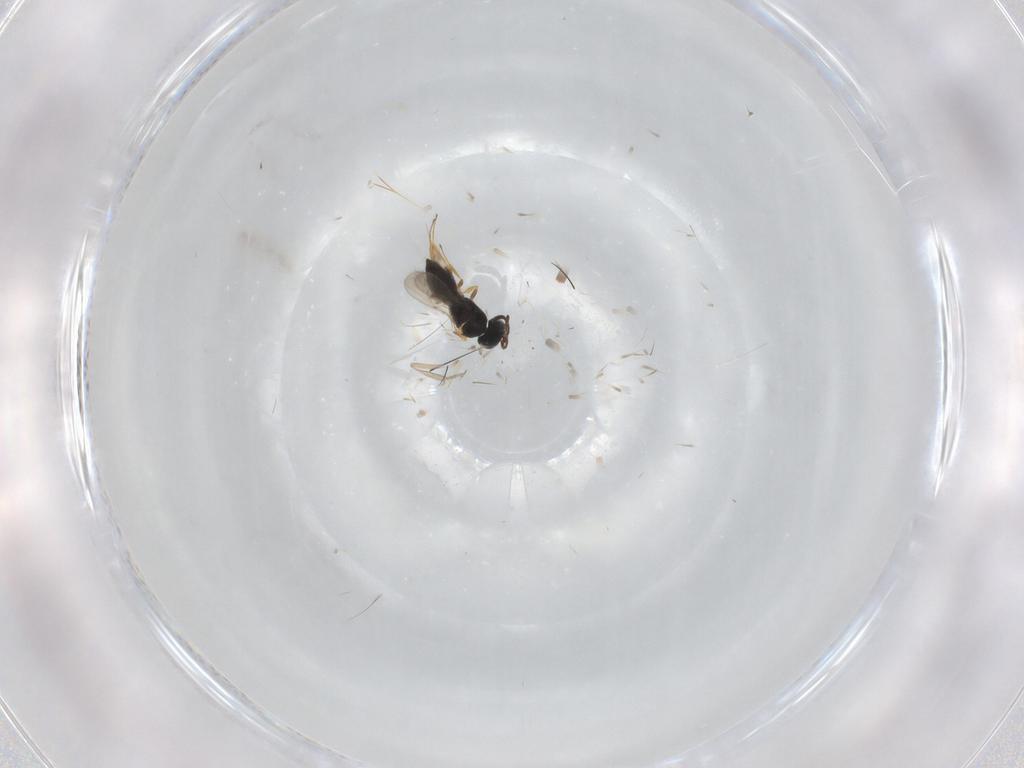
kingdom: Animalia
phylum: Arthropoda
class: Insecta
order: Hymenoptera
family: Scelionidae
